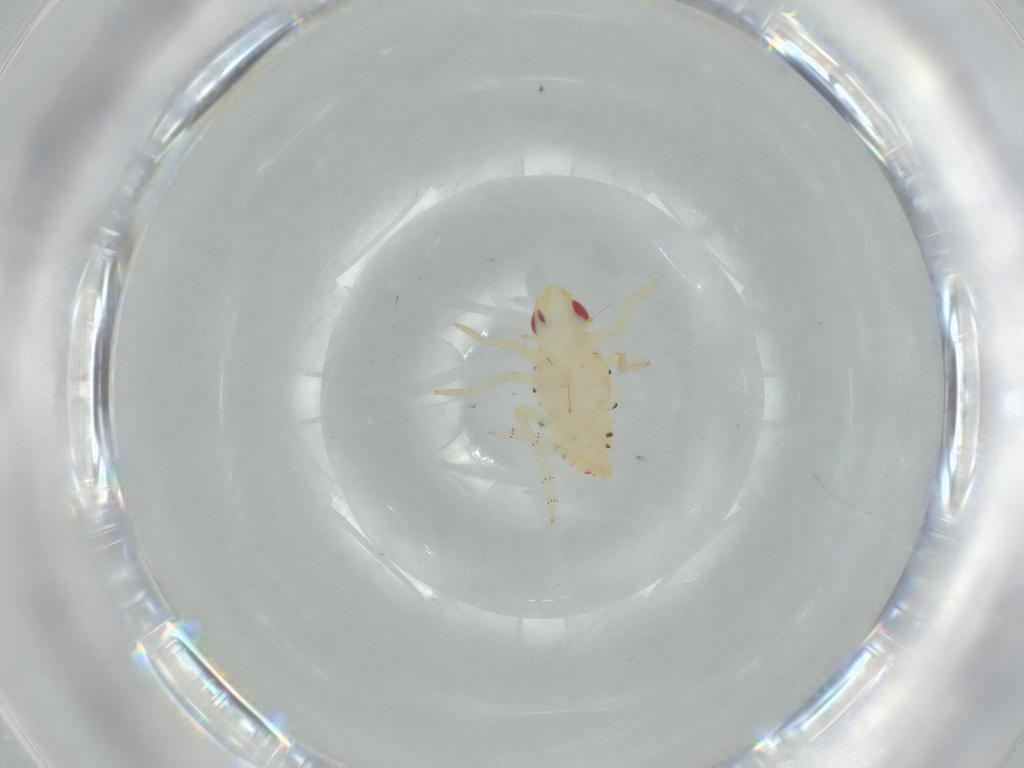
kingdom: Animalia
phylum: Arthropoda
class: Insecta
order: Hemiptera
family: Tropiduchidae
